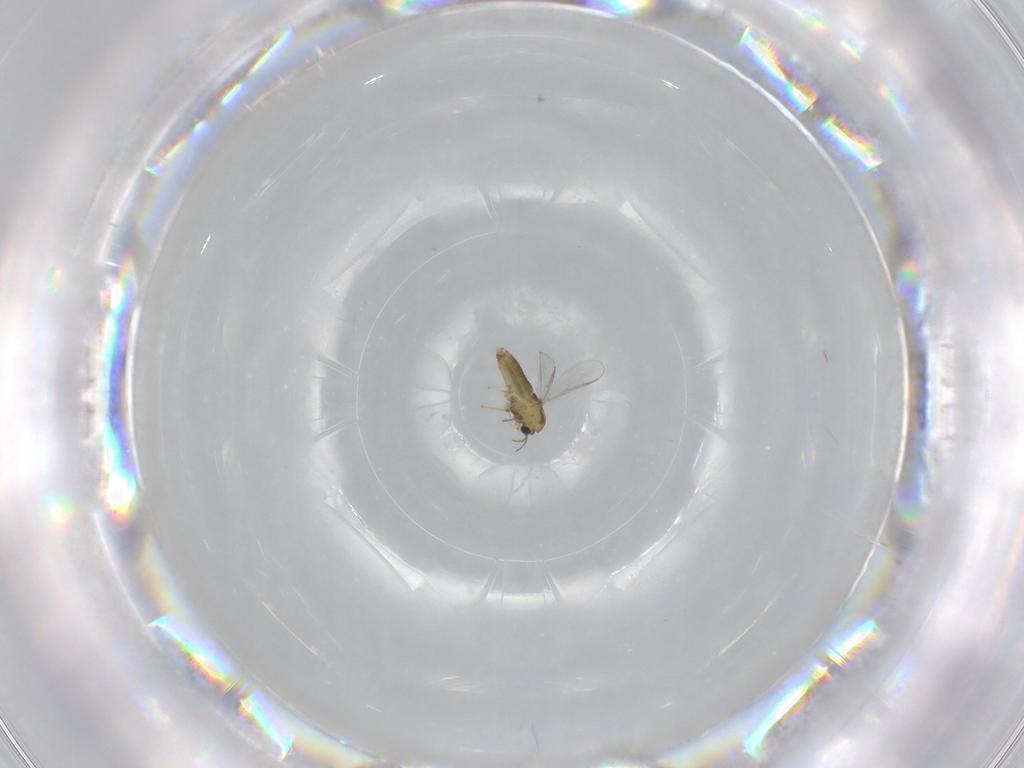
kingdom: Animalia
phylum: Arthropoda
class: Insecta
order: Diptera
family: Chironomidae
